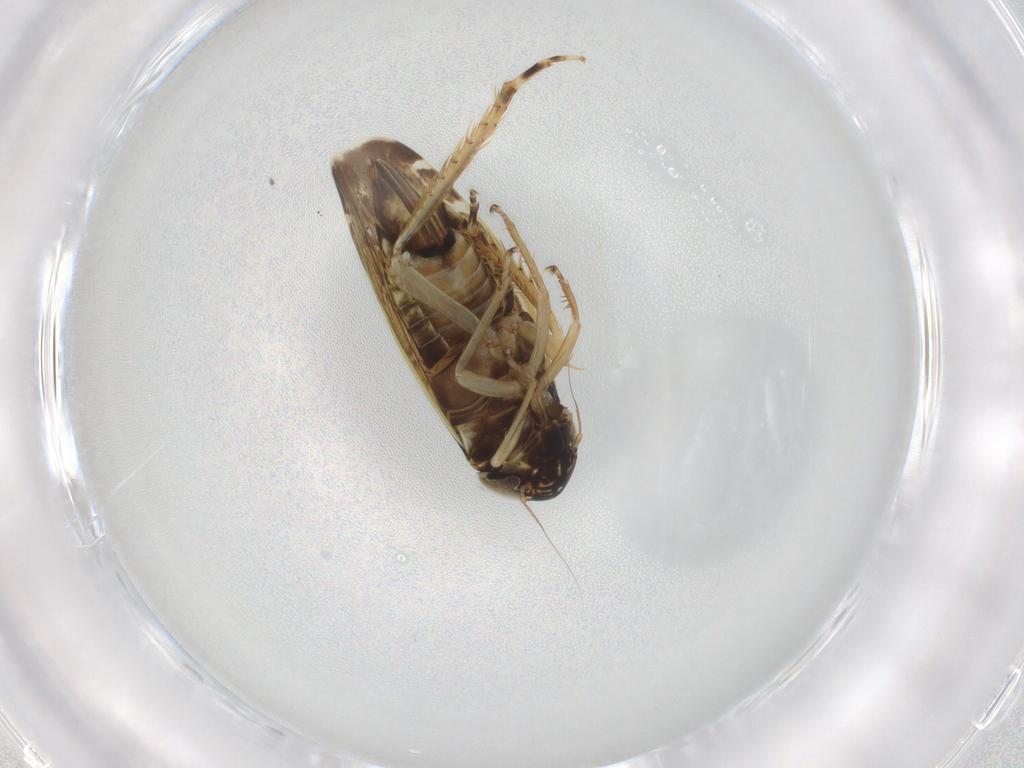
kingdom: Animalia
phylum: Arthropoda
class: Insecta
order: Hemiptera
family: Cicadellidae
